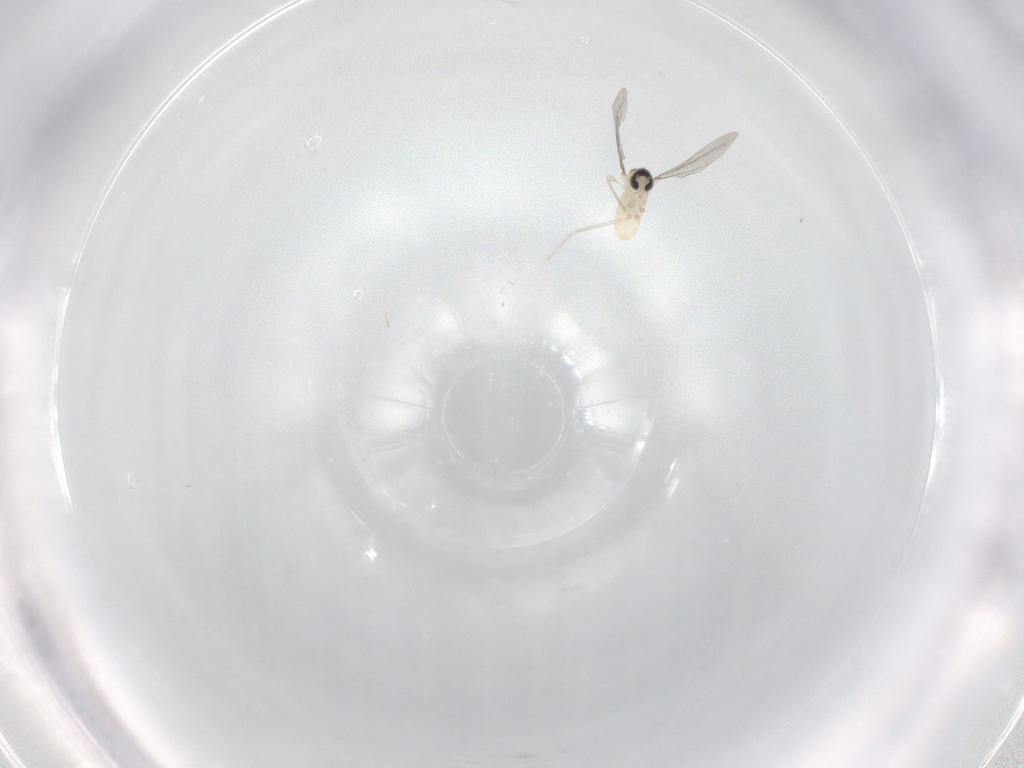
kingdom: Animalia
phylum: Arthropoda
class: Insecta
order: Diptera
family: Cecidomyiidae
